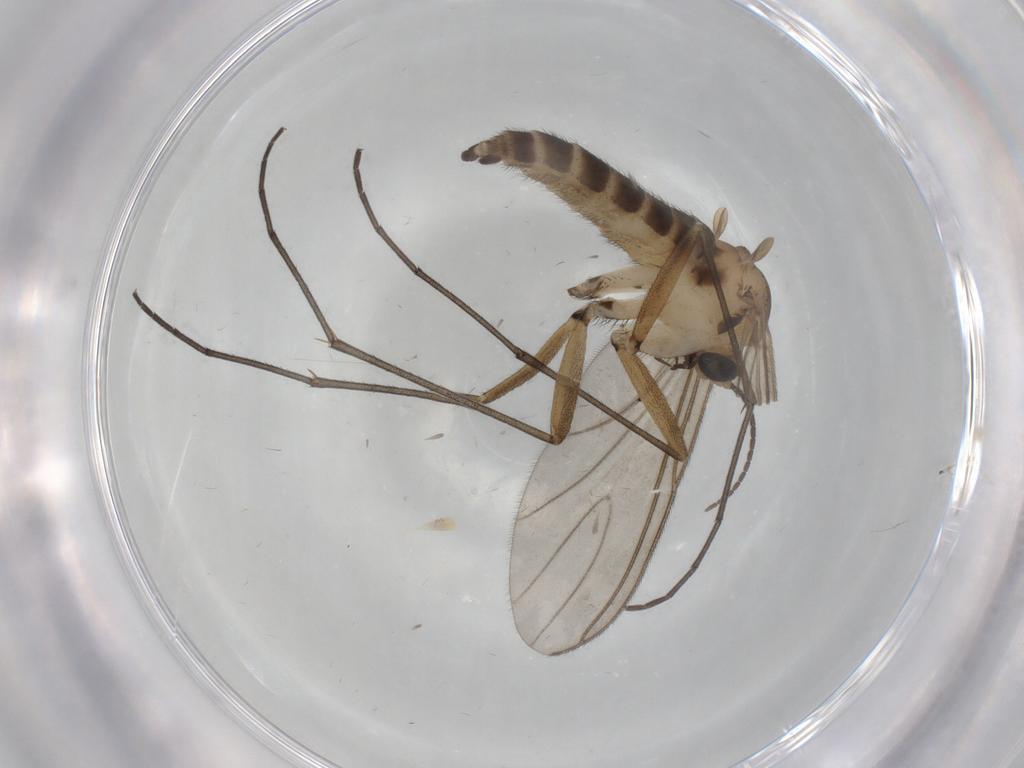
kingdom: Animalia
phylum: Arthropoda
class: Insecta
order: Diptera
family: Sciaridae
